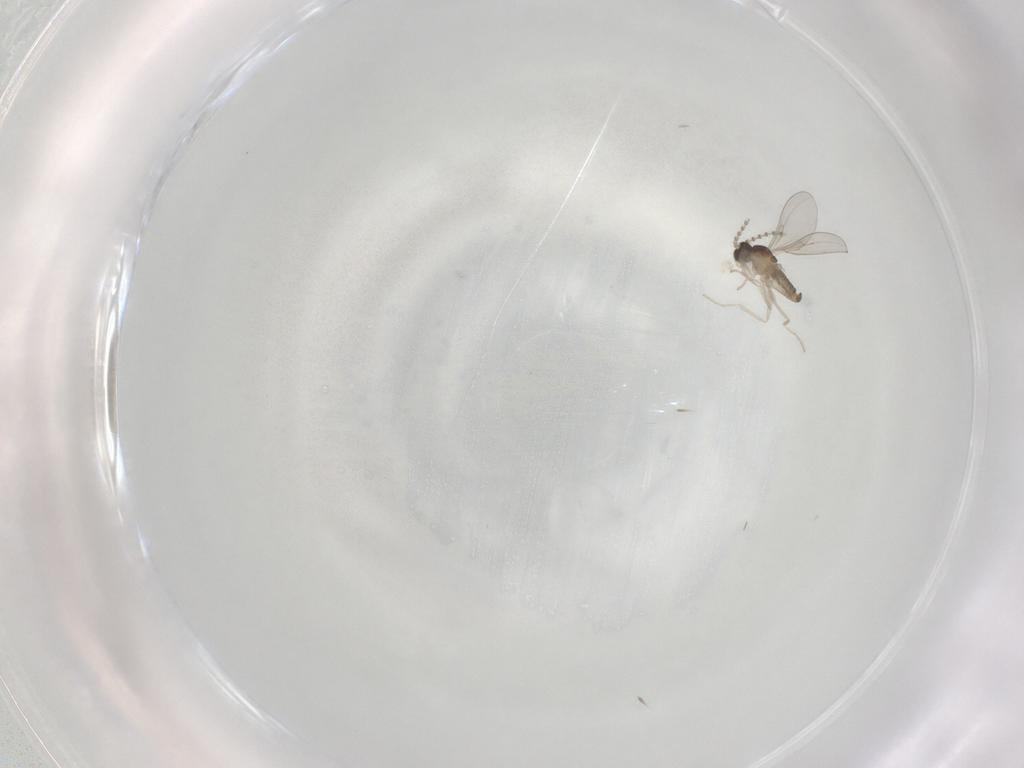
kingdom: Animalia
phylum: Arthropoda
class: Insecta
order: Diptera
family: Cecidomyiidae
